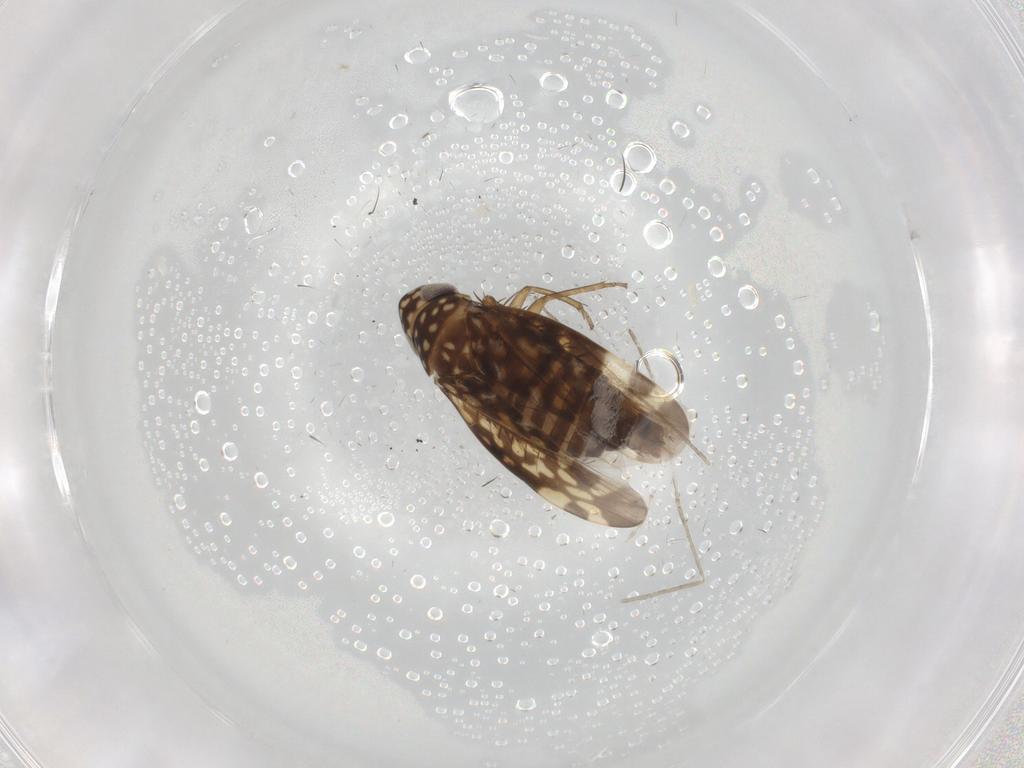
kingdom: Animalia
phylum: Arthropoda
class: Insecta
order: Hemiptera
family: Cicadellidae
